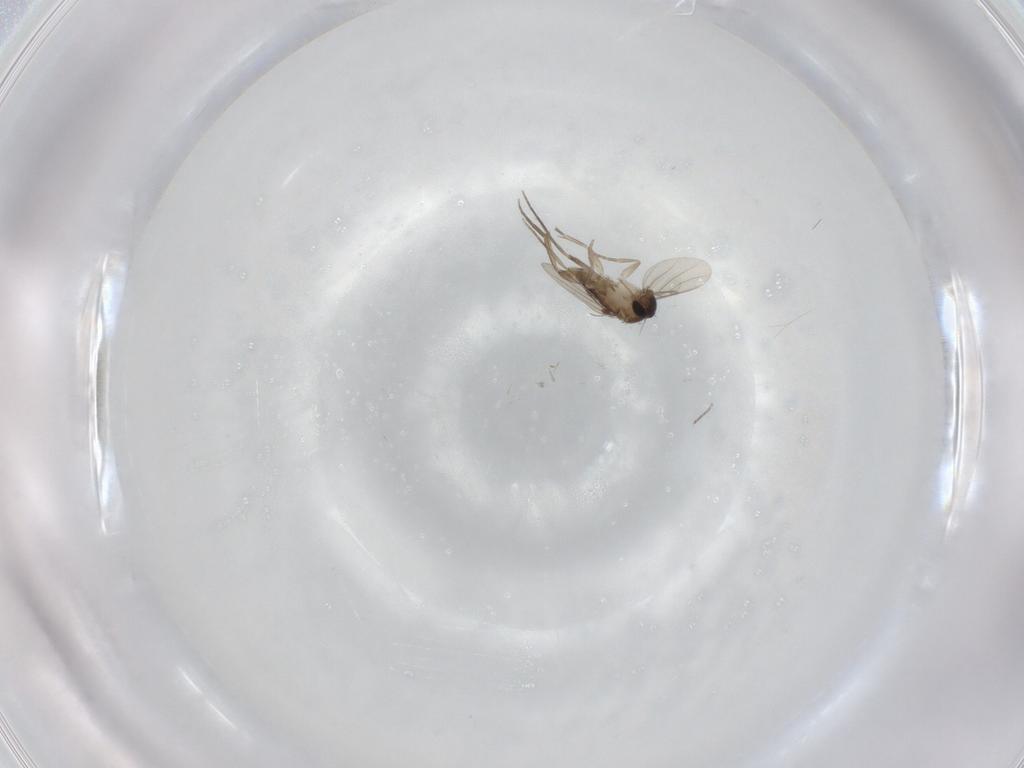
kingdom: Animalia
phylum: Arthropoda
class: Insecta
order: Diptera
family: Phoridae
